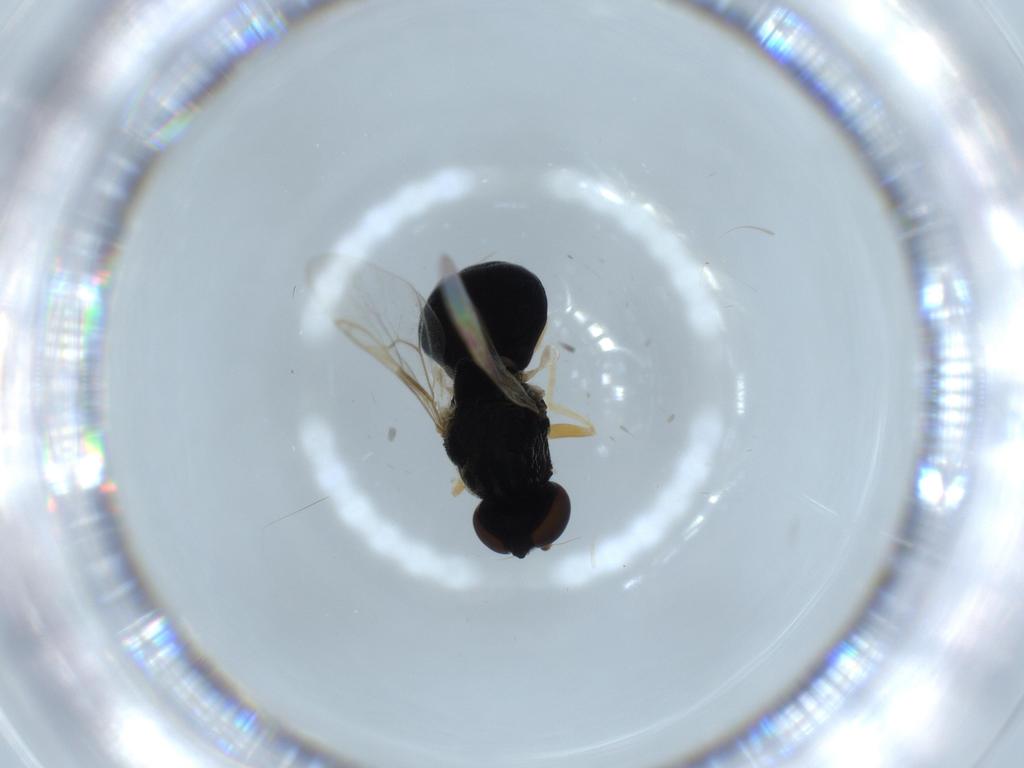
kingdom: Animalia
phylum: Arthropoda
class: Insecta
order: Diptera
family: Stratiomyidae
